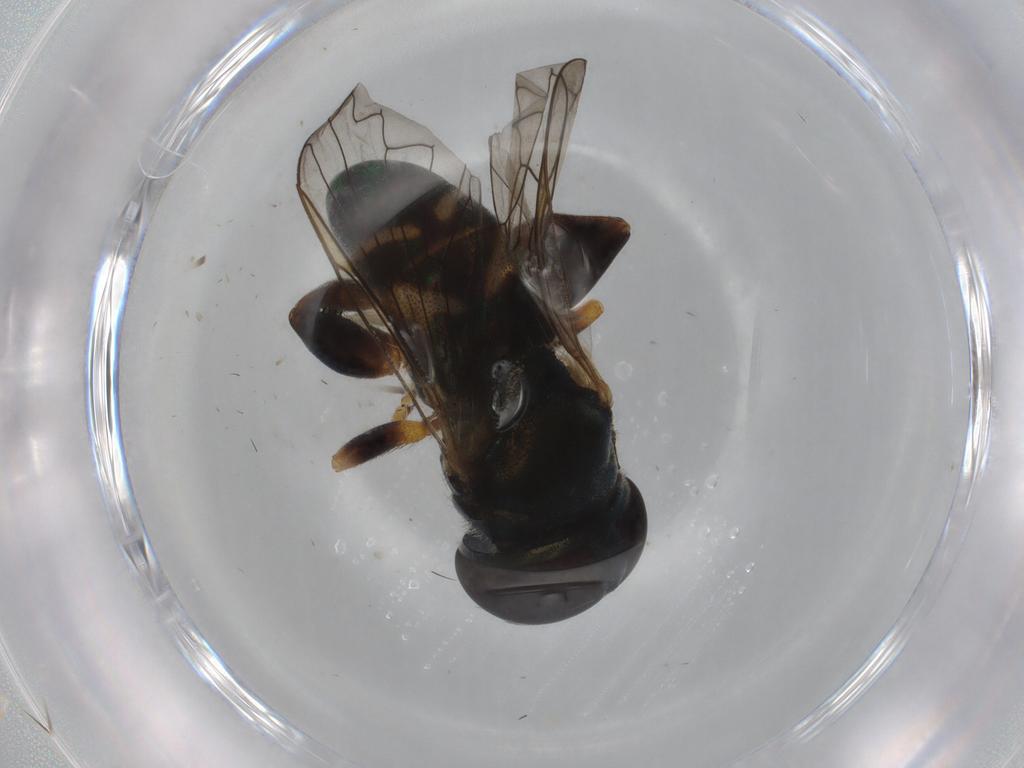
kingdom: Animalia
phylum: Arthropoda
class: Insecta
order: Diptera
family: Syrphidae
